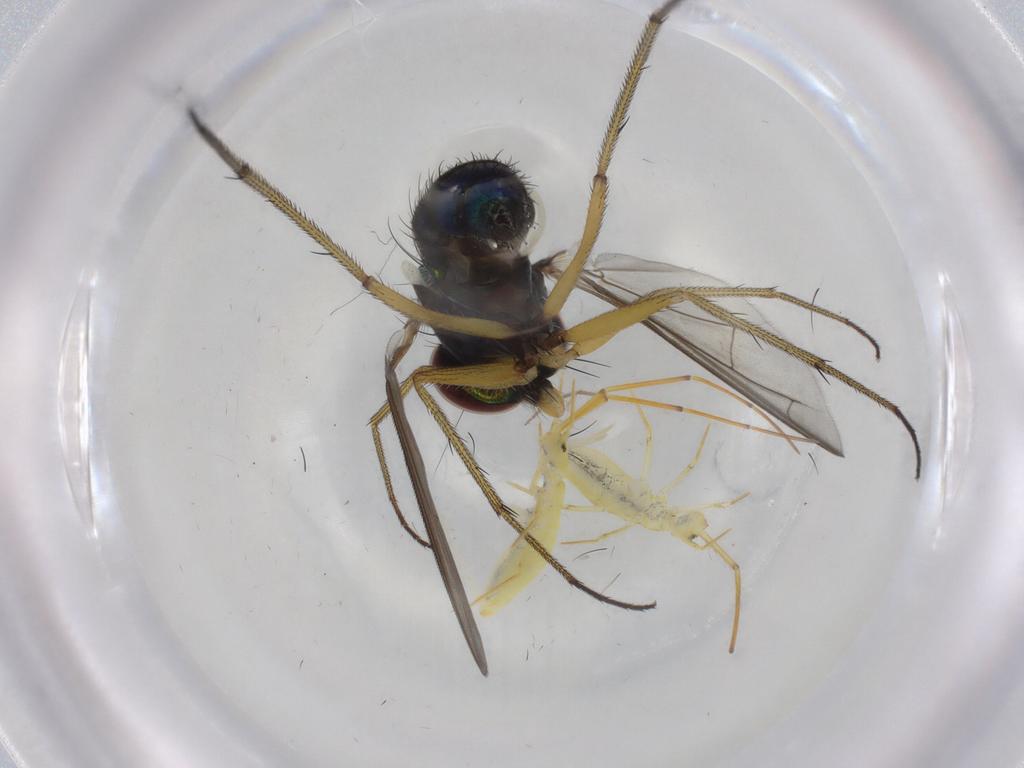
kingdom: Animalia
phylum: Arthropoda
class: Insecta
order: Diptera
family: Dolichopodidae
